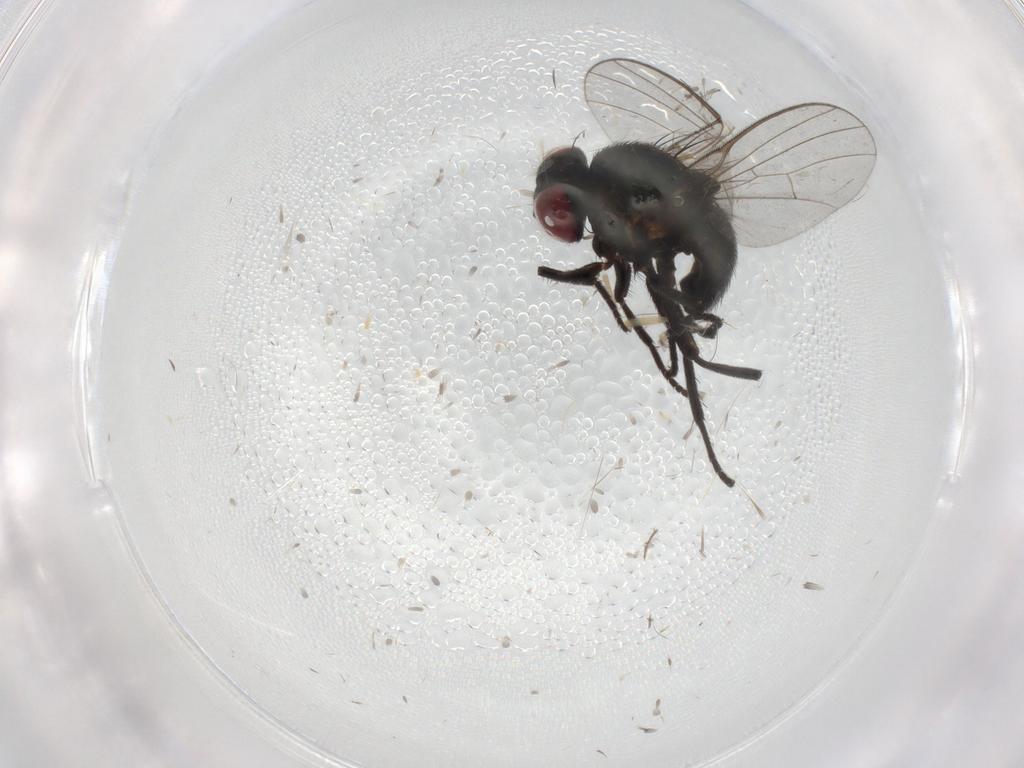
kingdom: Animalia
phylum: Arthropoda
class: Insecta
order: Diptera
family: Agromyzidae
